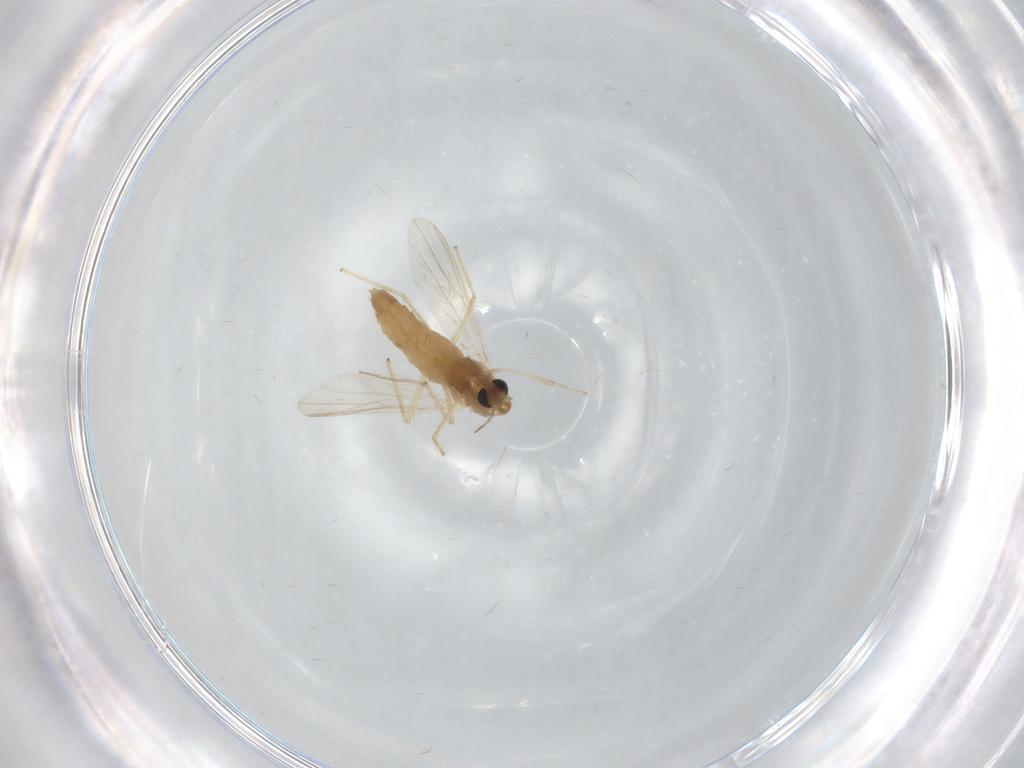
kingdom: Animalia
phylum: Arthropoda
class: Insecta
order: Diptera
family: Chironomidae
